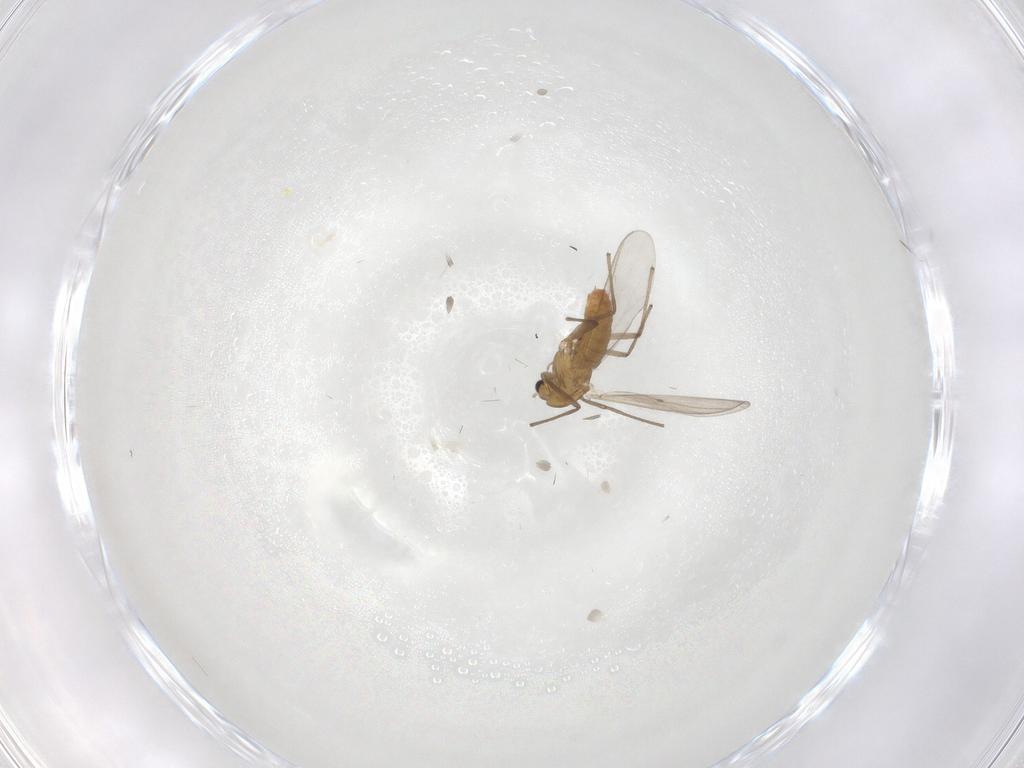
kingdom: Animalia
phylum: Arthropoda
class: Insecta
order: Diptera
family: Chironomidae
